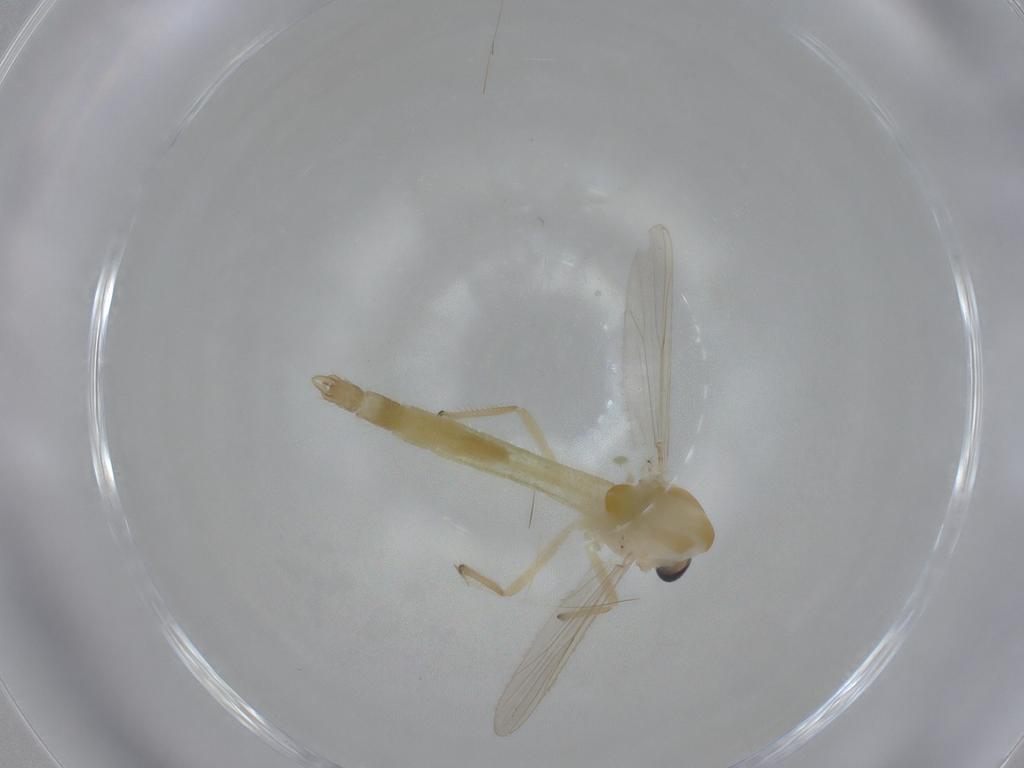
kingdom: Animalia
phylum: Arthropoda
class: Insecta
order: Diptera
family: Chironomidae
